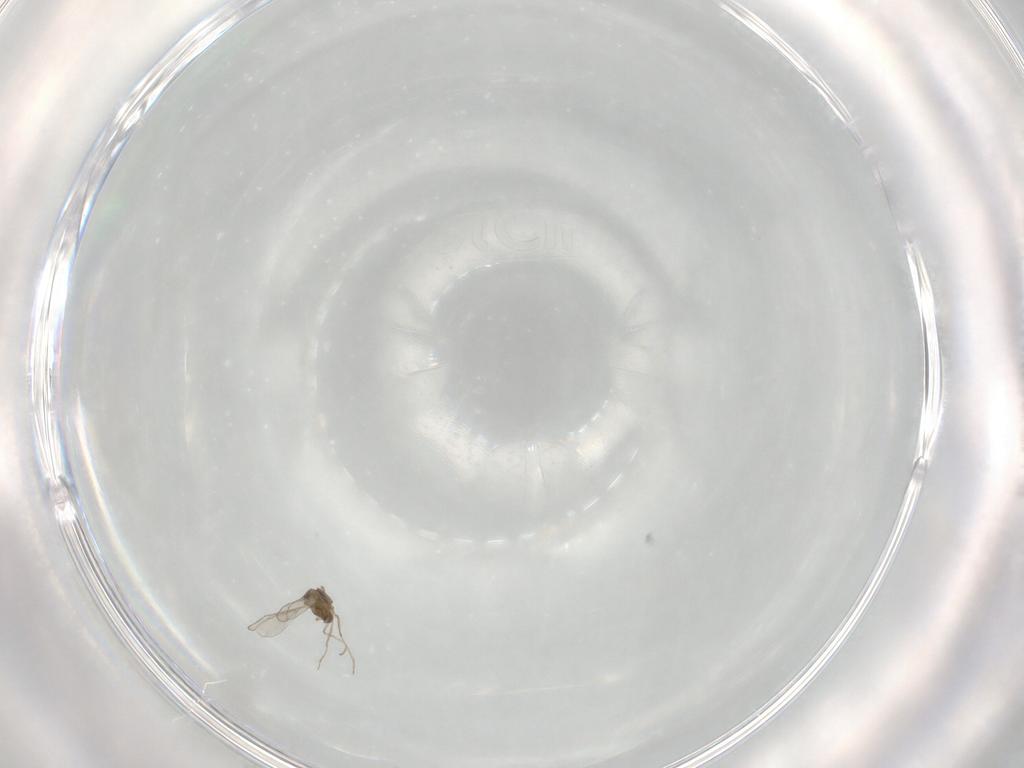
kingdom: Animalia
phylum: Arthropoda
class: Insecta
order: Diptera
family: Cecidomyiidae
